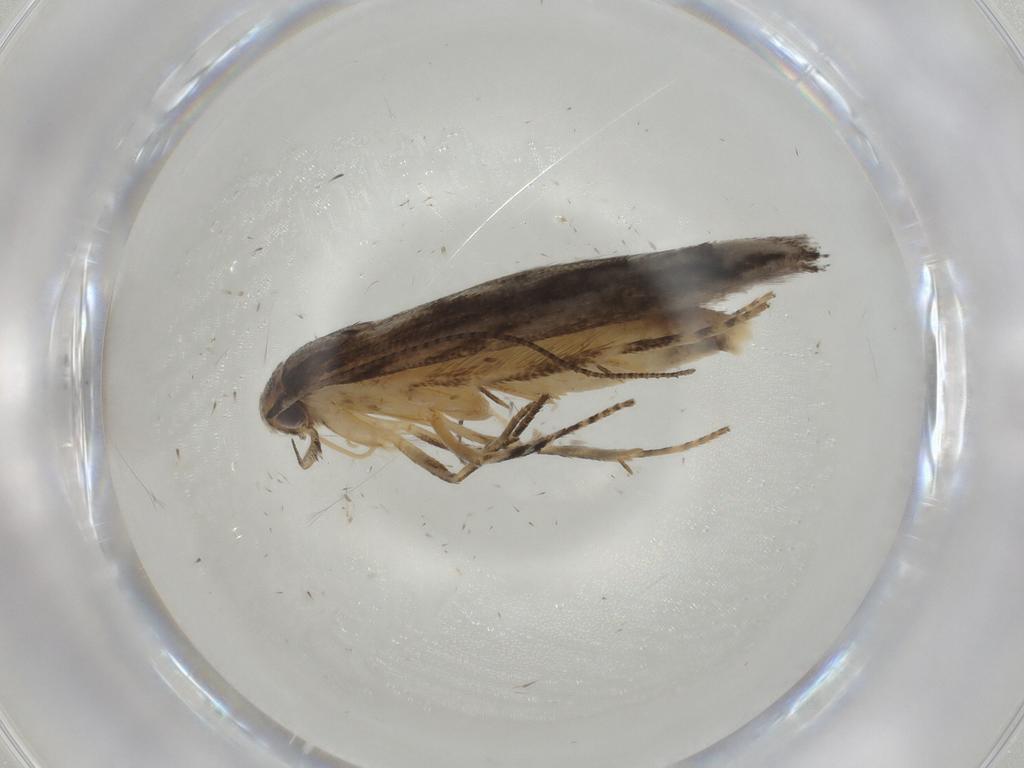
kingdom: Animalia
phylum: Arthropoda
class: Insecta
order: Lepidoptera
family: Elachistidae
